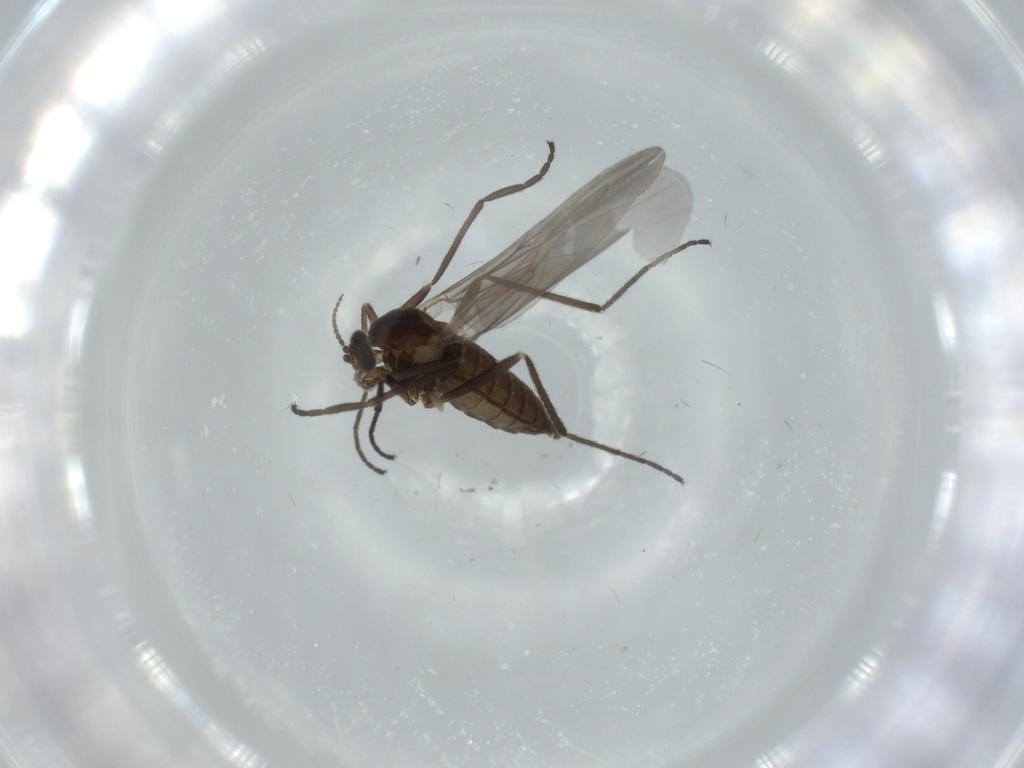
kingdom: Animalia
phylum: Arthropoda
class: Insecta
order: Diptera
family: Cecidomyiidae
